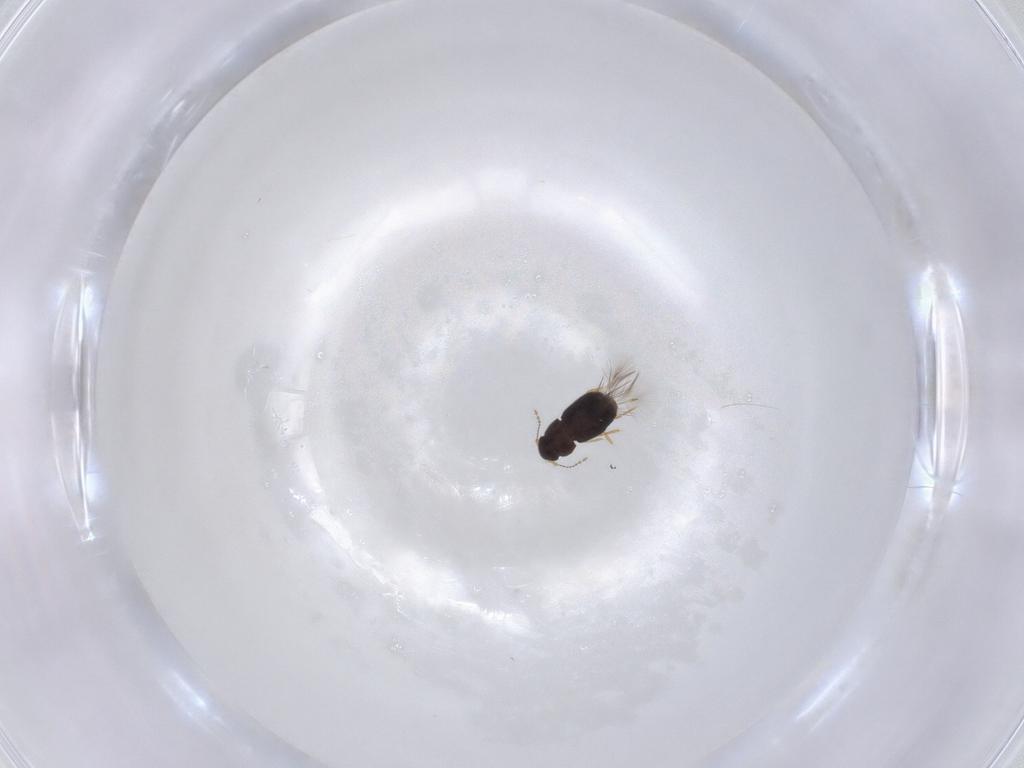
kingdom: Animalia
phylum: Arthropoda
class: Insecta
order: Coleoptera
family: Ptiliidae
